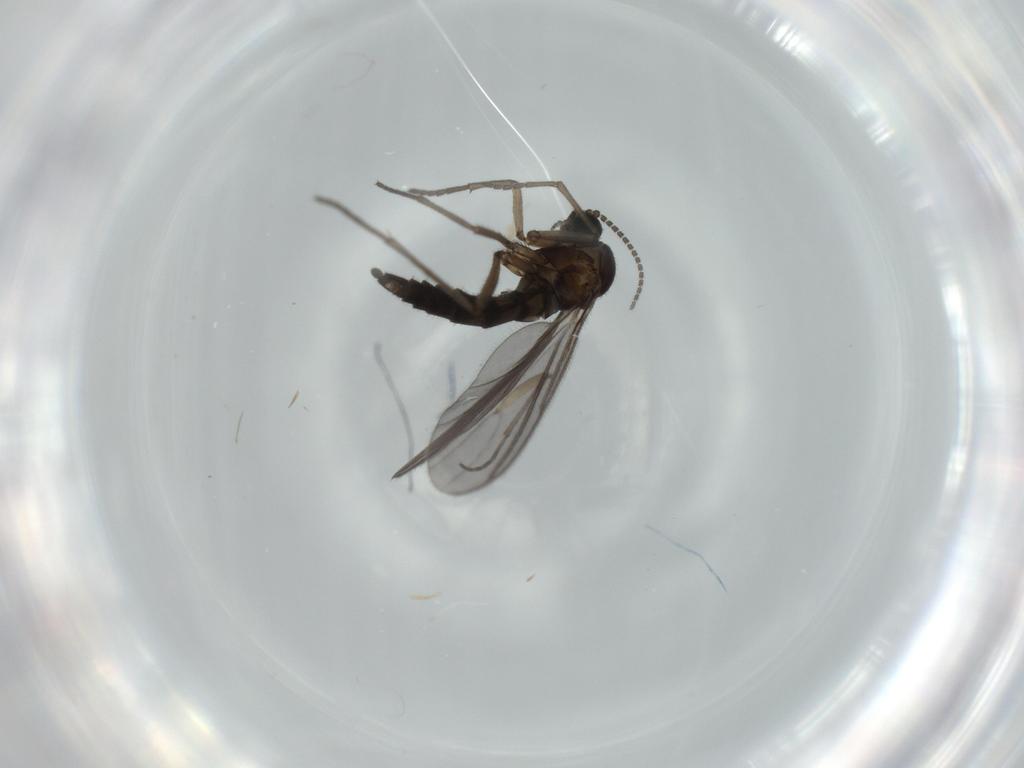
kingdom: Animalia
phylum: Arthropoda
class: Insecta
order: Diptera
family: Sciaridae
